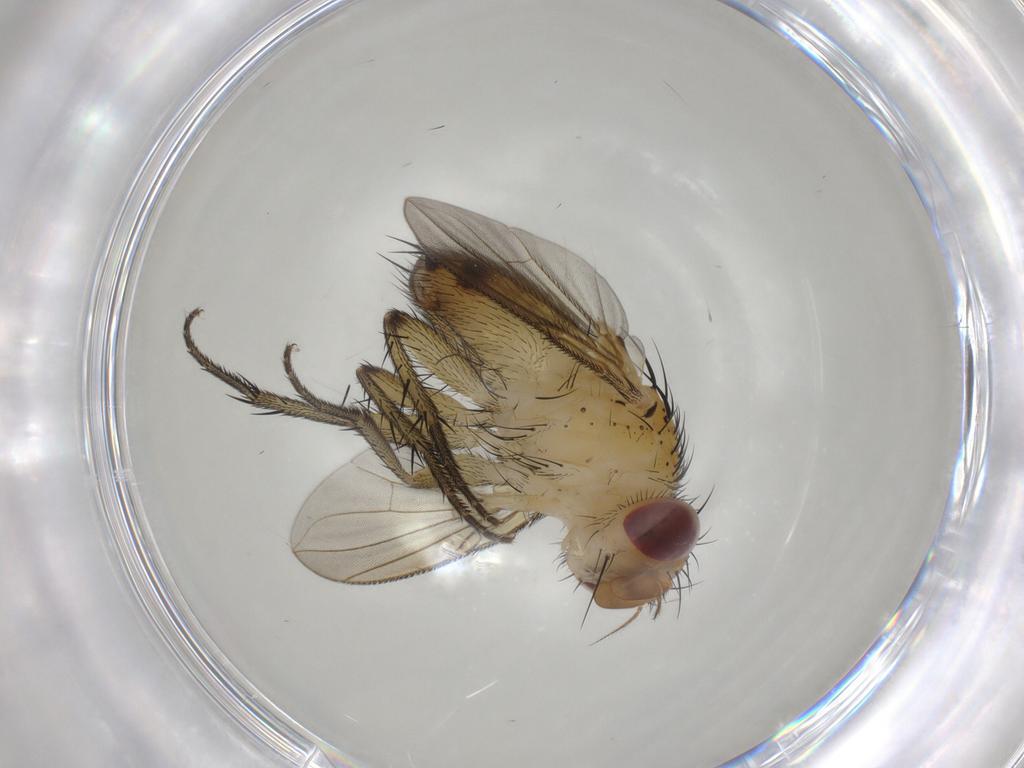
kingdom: Animalia
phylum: Arthropoda
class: Insecta
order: Diptera
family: Tachinidae
